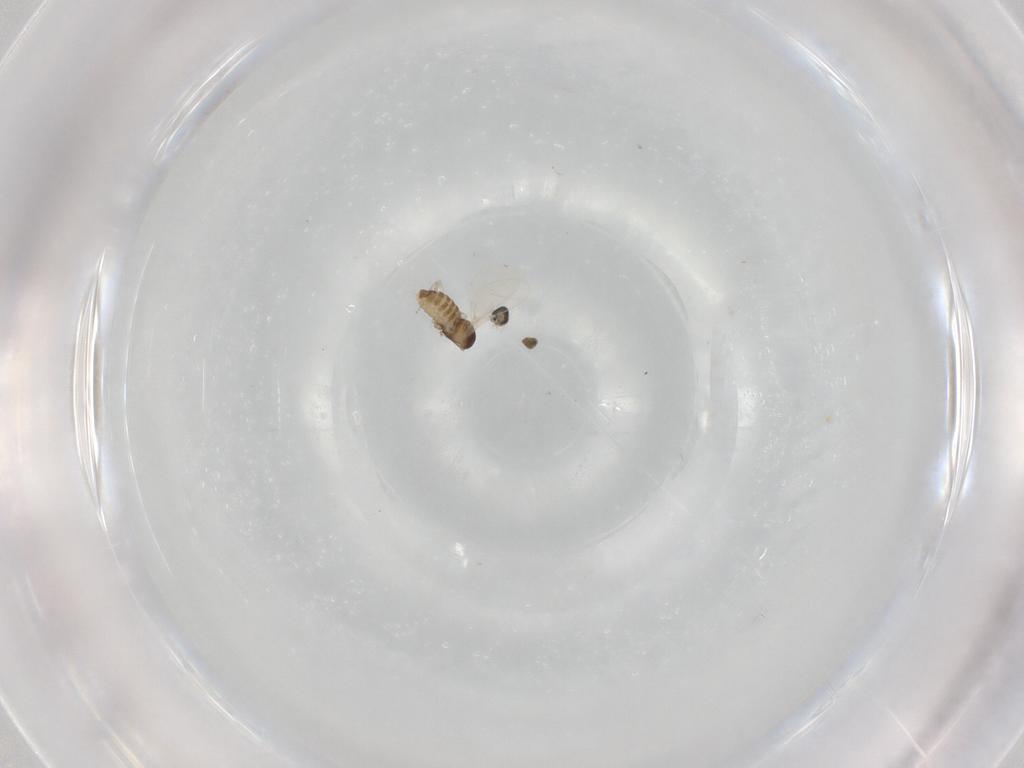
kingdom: Animalia
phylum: Arthropoda
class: Insecta
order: Diptera
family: Cecidomyiidae
